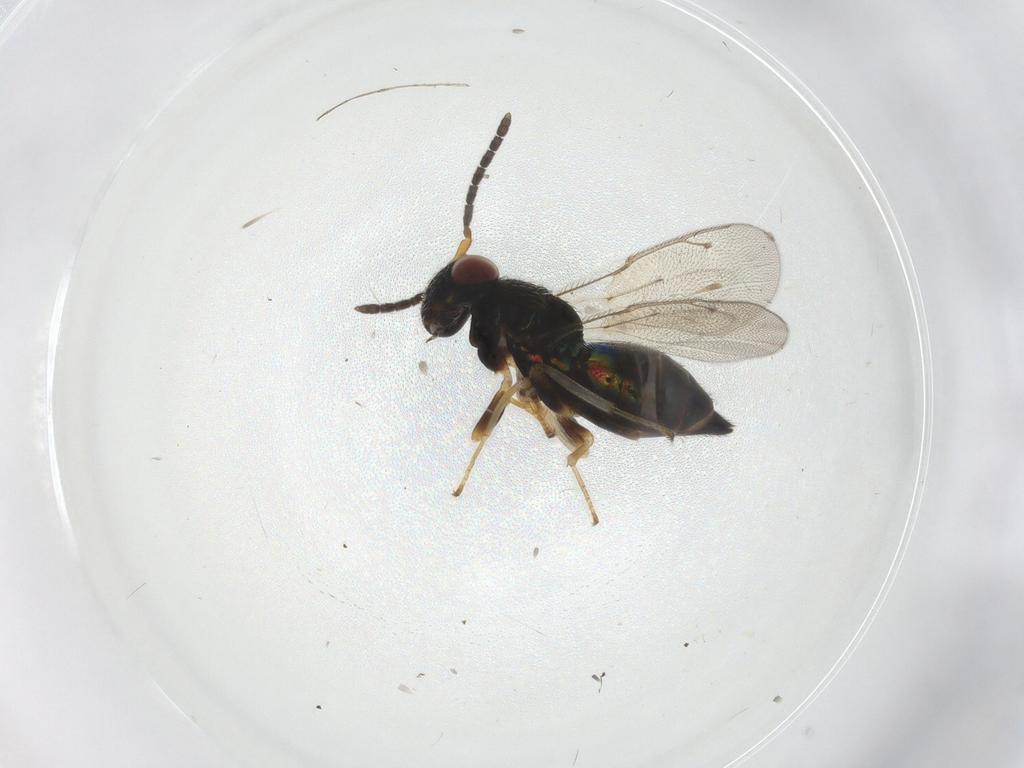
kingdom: Animalia
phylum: Arthropoda
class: Insecta
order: Hymenoptera
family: Pteromalidae
